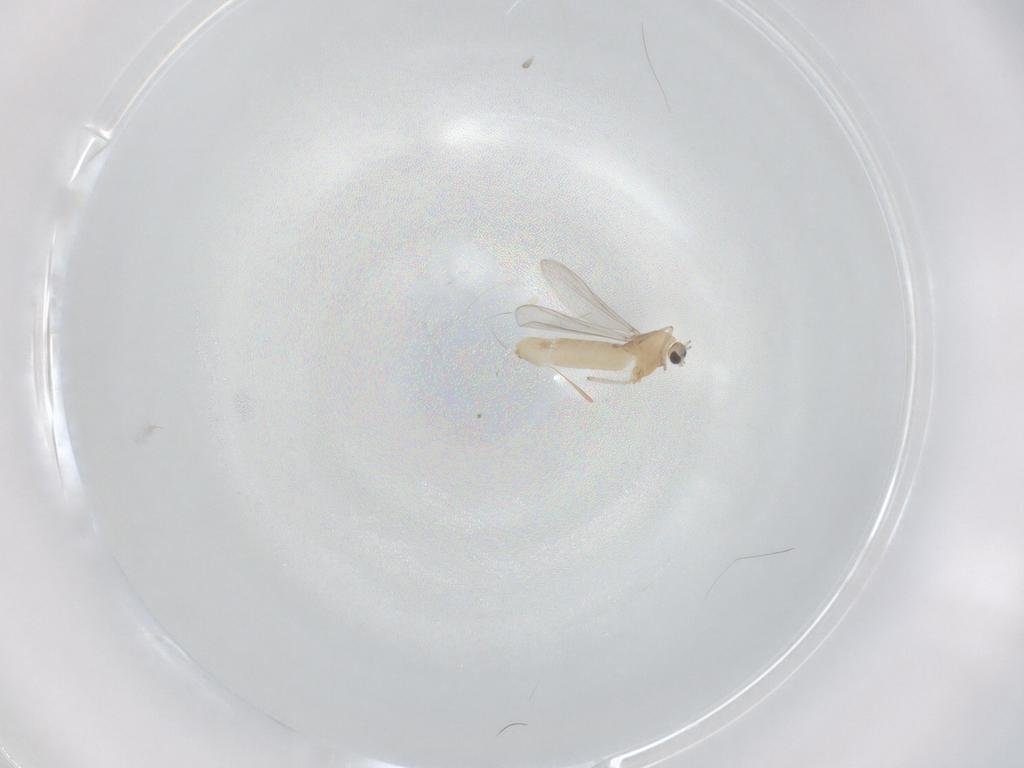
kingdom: Animalia
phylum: Arthropoda
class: Insecta
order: Diptera
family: Chironomidae
